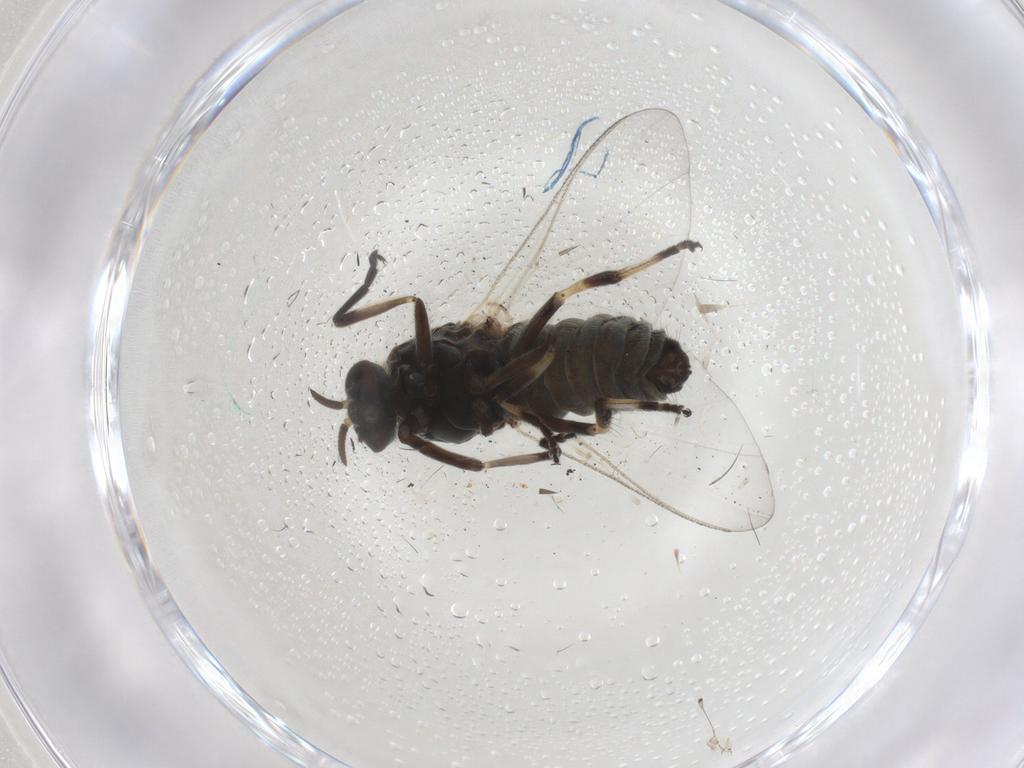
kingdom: Animalia
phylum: Arthropoda
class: Insecta
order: Diptera
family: Simuliidae
